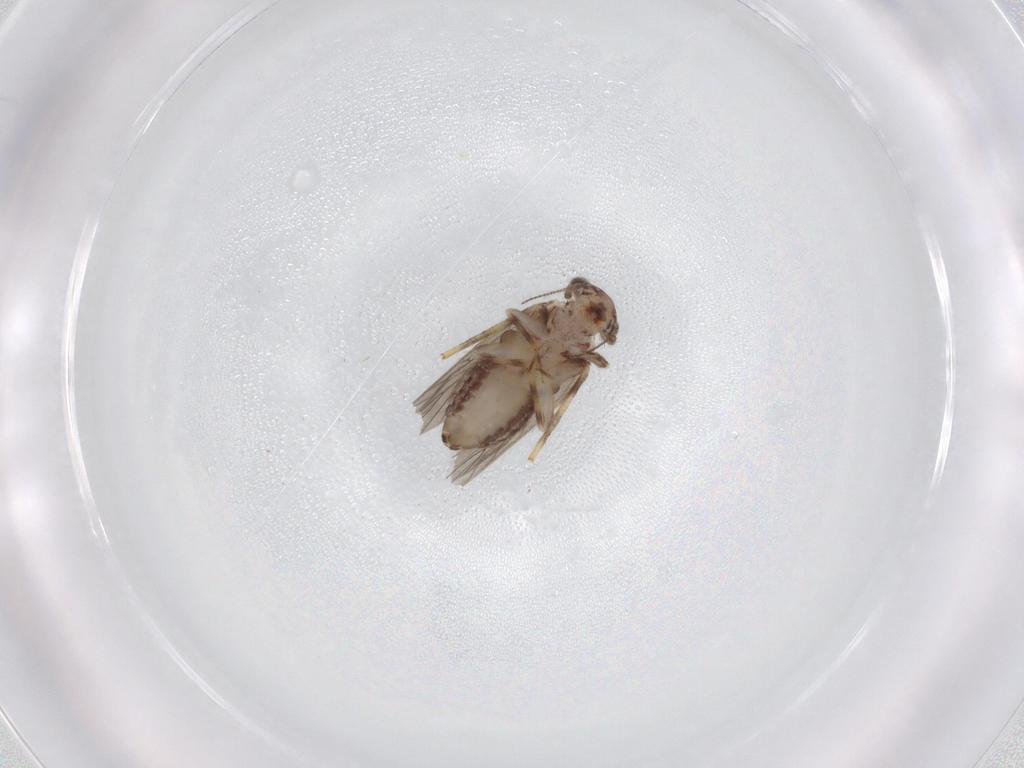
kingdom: Animalia
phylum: Arthropoda
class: Insecta
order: Psocodea
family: Lepidopsocidae
